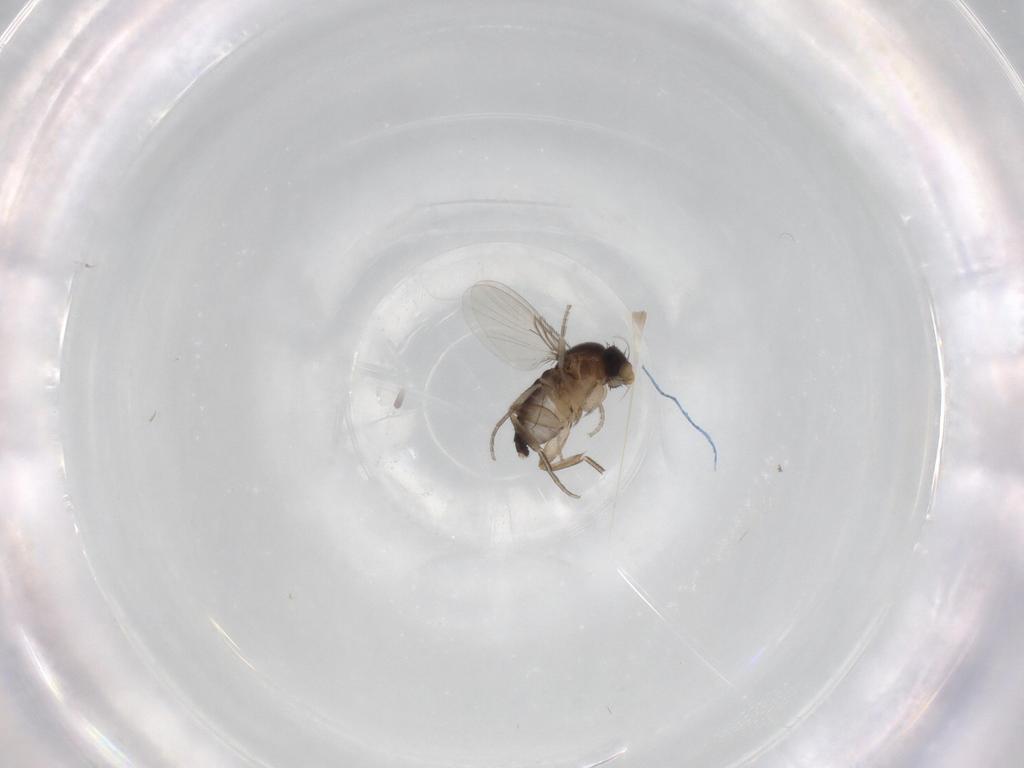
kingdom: Animalia
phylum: Arthropoda
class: Insecta
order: Diptera
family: Phoridae
